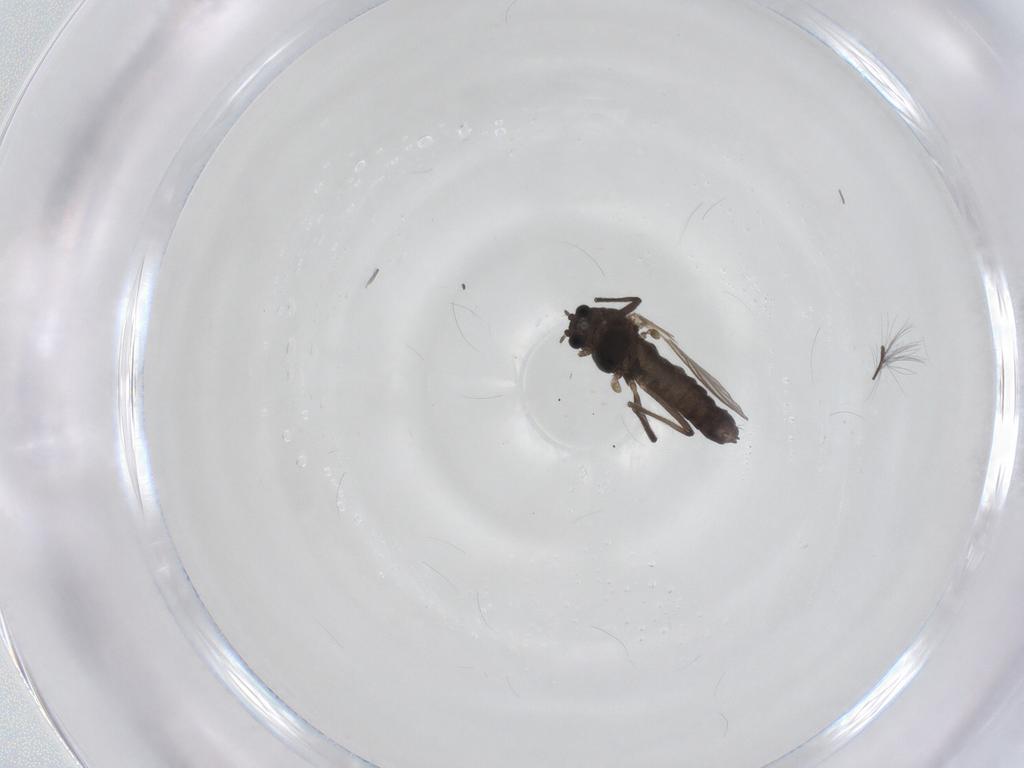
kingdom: Animalia
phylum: Arthropoda
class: Insecta
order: Diptera
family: Chironomidae
